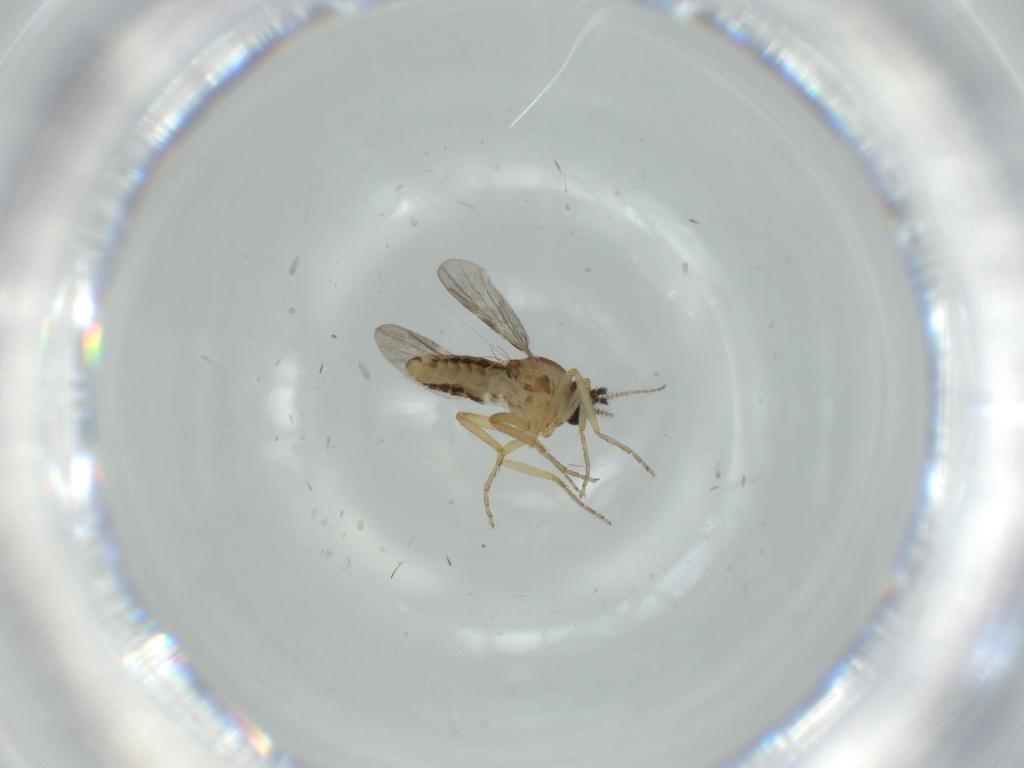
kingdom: Animalia
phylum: Arthropoda
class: Insecta
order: Diptera
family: Ceratopogonidae
